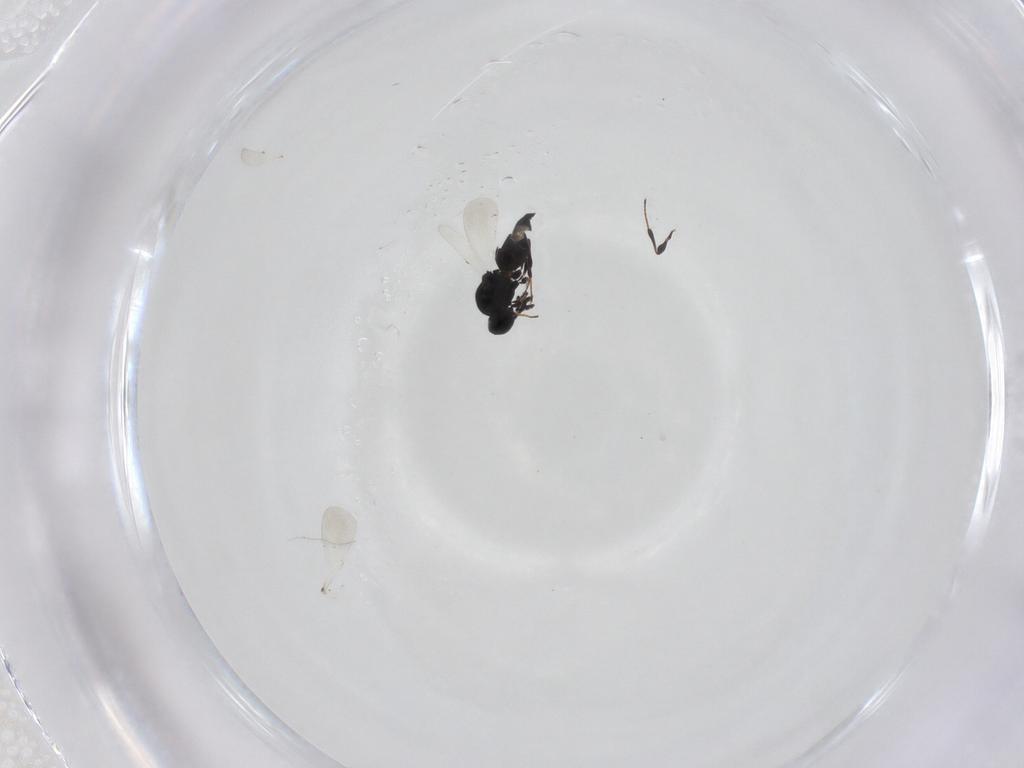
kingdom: Animalia
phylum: Arthropoda
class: Insecta
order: Hymenoptera
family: Platygastridae
